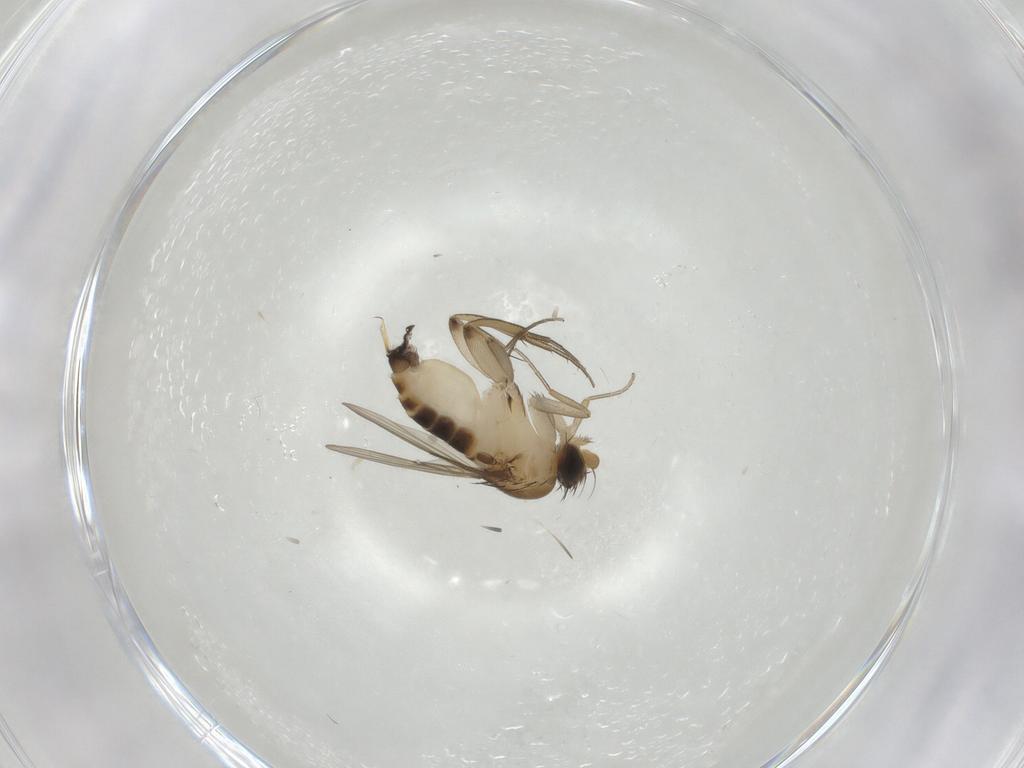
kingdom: Animalia
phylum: Arthropoda
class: Insecta
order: Diptera
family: Phoridae
